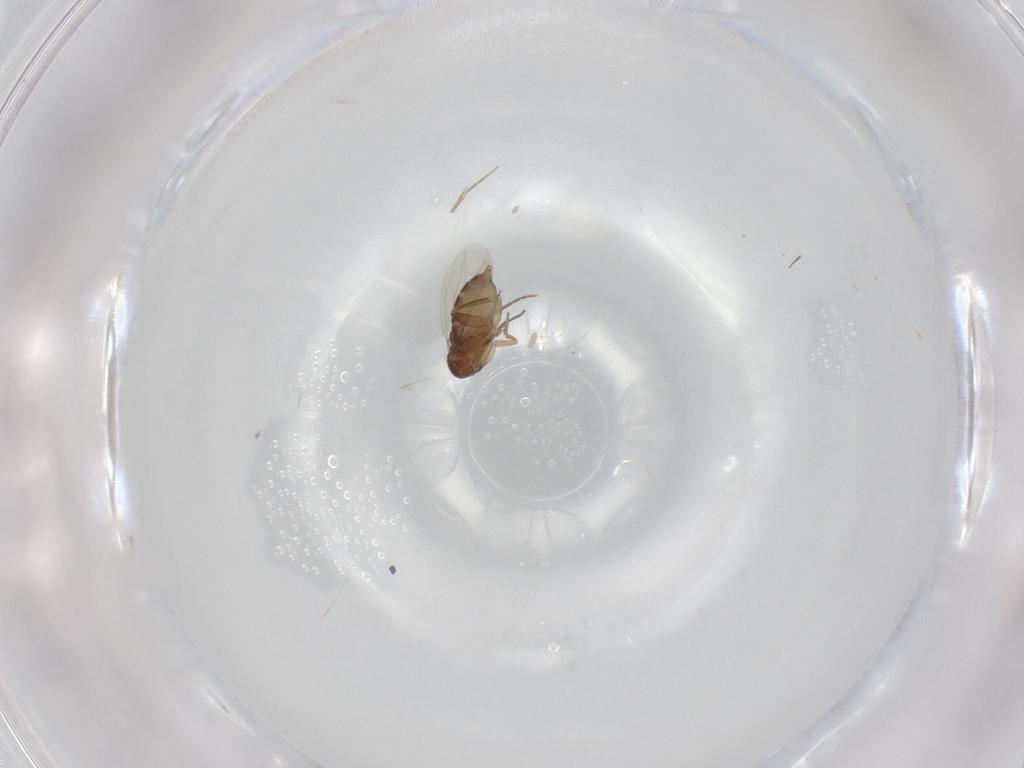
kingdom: Animalia
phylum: Arthropoda
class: Insecta
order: Diptera
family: Phoridae
